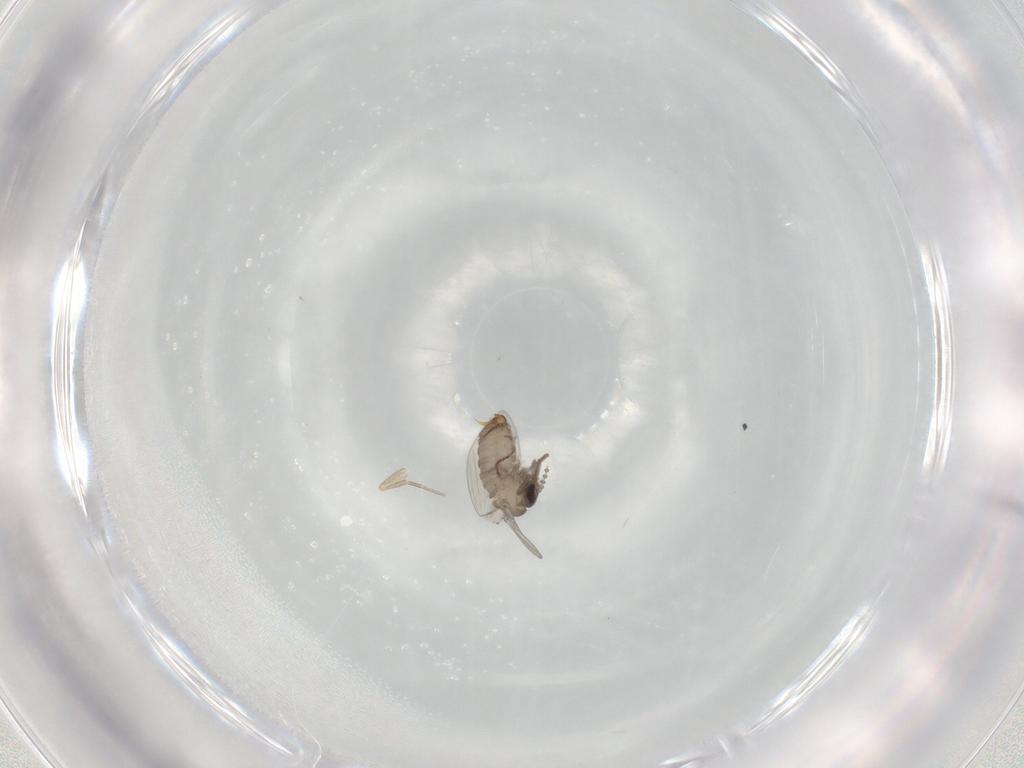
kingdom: Animalia
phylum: Arthropoda
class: Insecta
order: Diptera
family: Psychodidae
